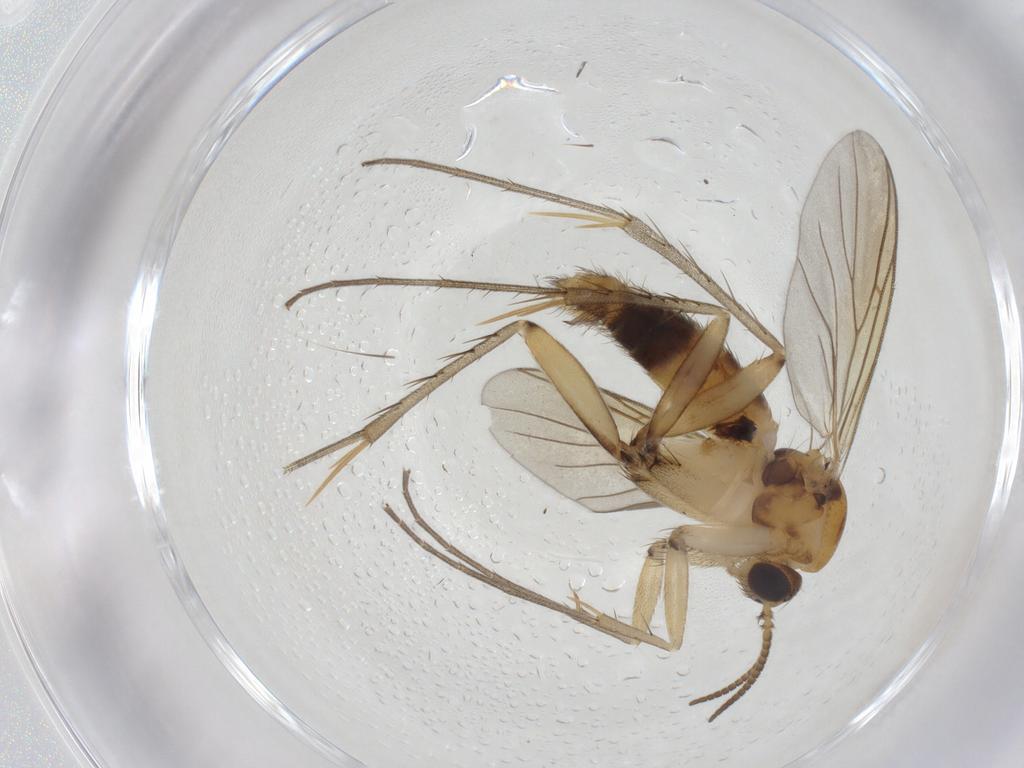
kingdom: Animalia
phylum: Arthropoda
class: Insecta
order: Diptera
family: Mycetophilidae
